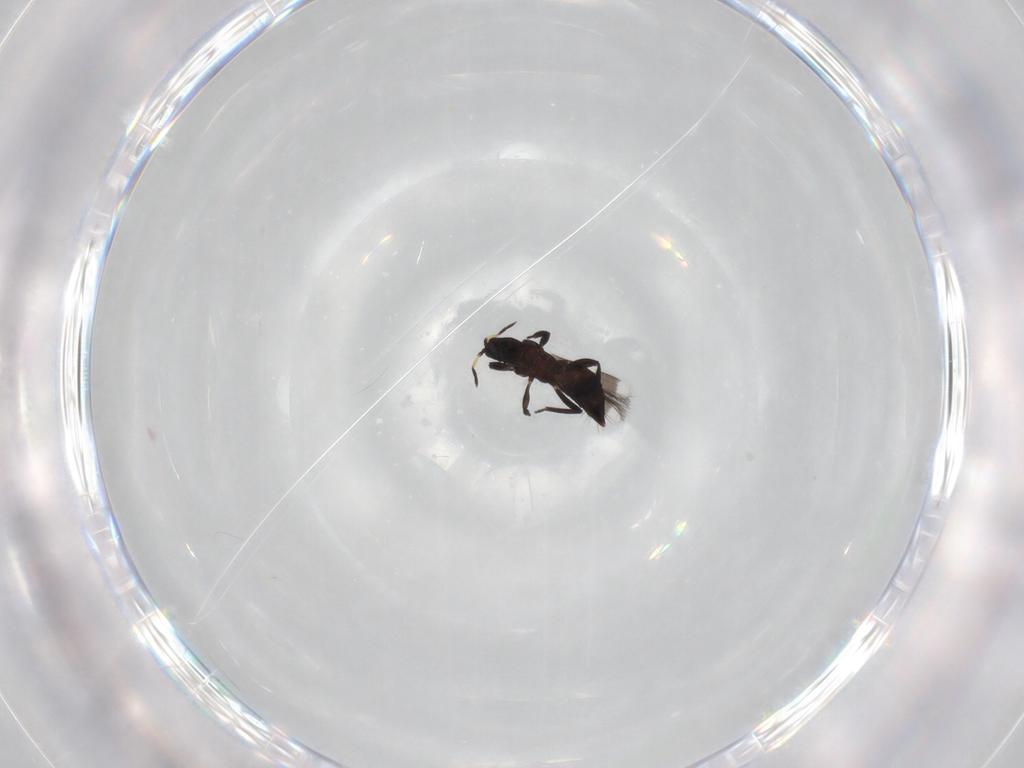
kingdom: Animalia
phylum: Arthropoda
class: Insecta
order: Thysanoptera
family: Aeolothripidae
